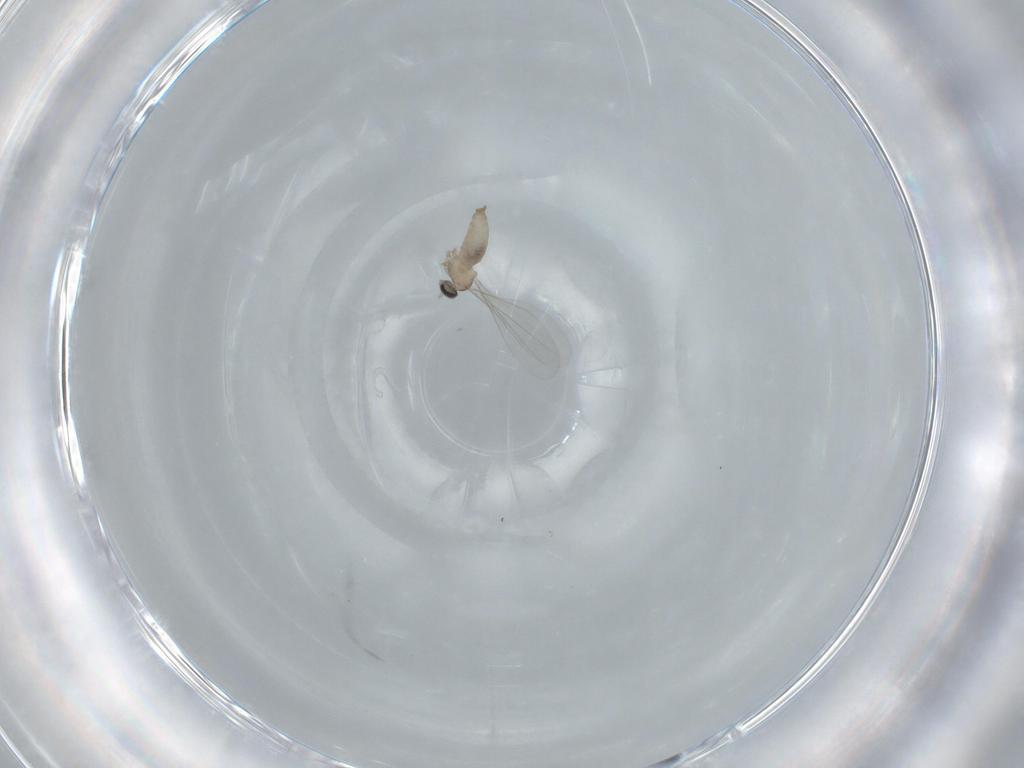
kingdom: Animalia
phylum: Arthropoda
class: Insecta
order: Diptera
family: Cecidomyiidae
